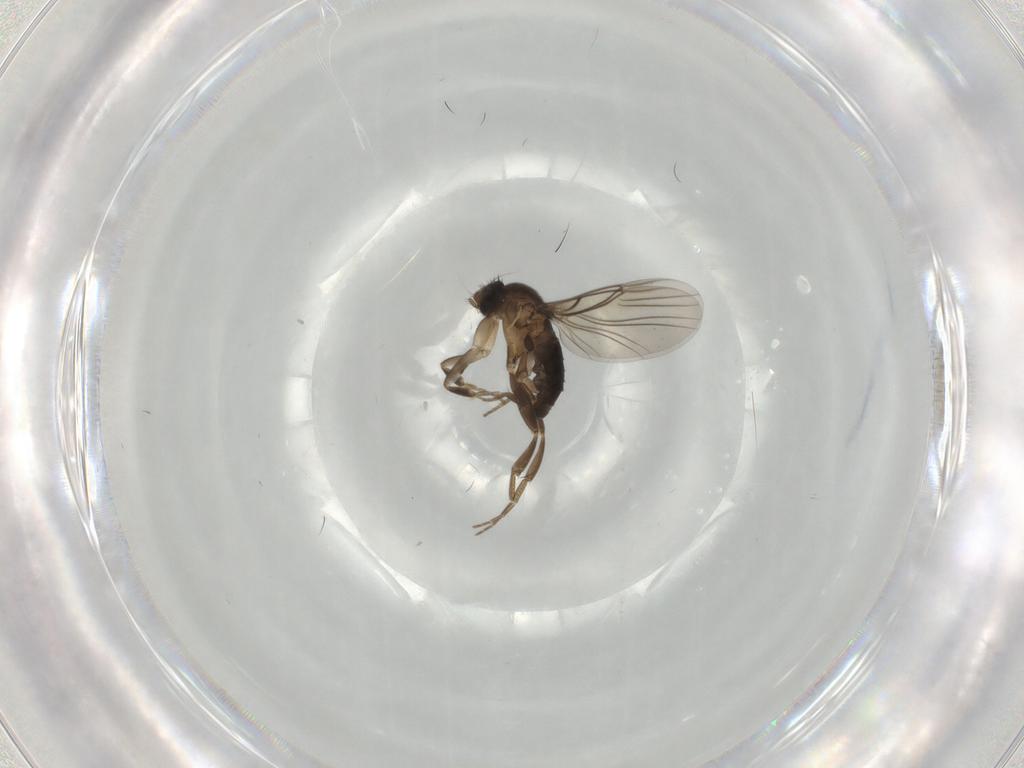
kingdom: Animalia
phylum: Arthropoda
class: Insecta
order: Diptera
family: Phoridae
